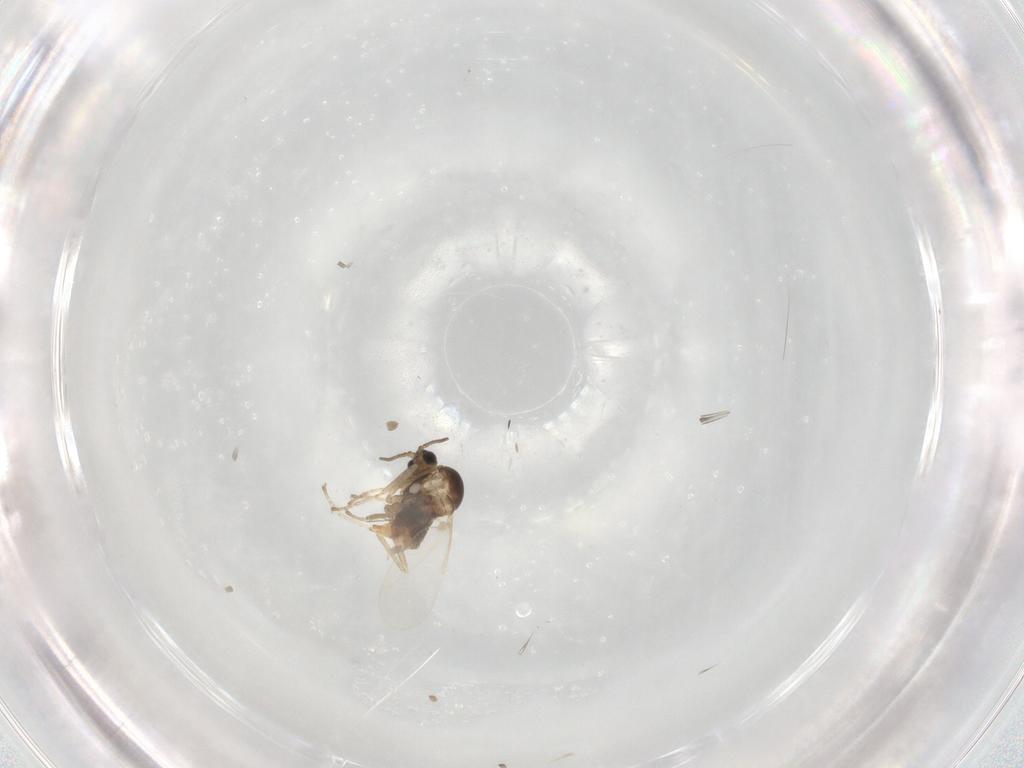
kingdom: Animalia
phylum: Arthropoda
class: Insecta
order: Diptera
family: Cecidomyiidae
